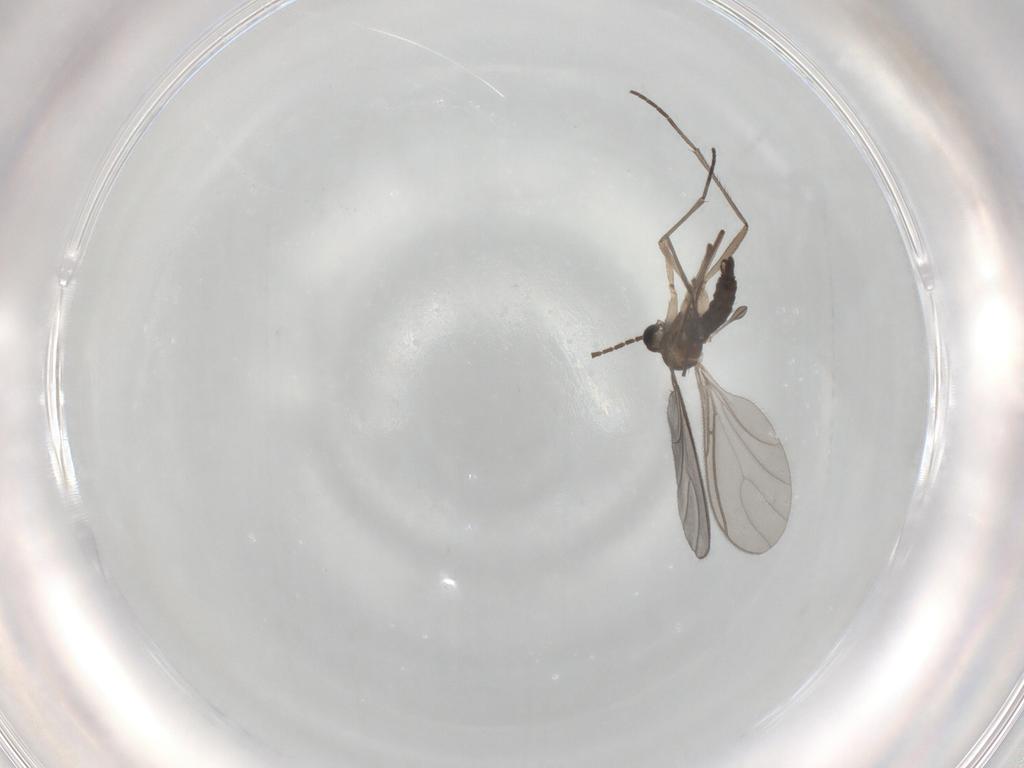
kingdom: Animalia
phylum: Arthropoda
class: Insecta
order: Diptera
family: Sciaridae
